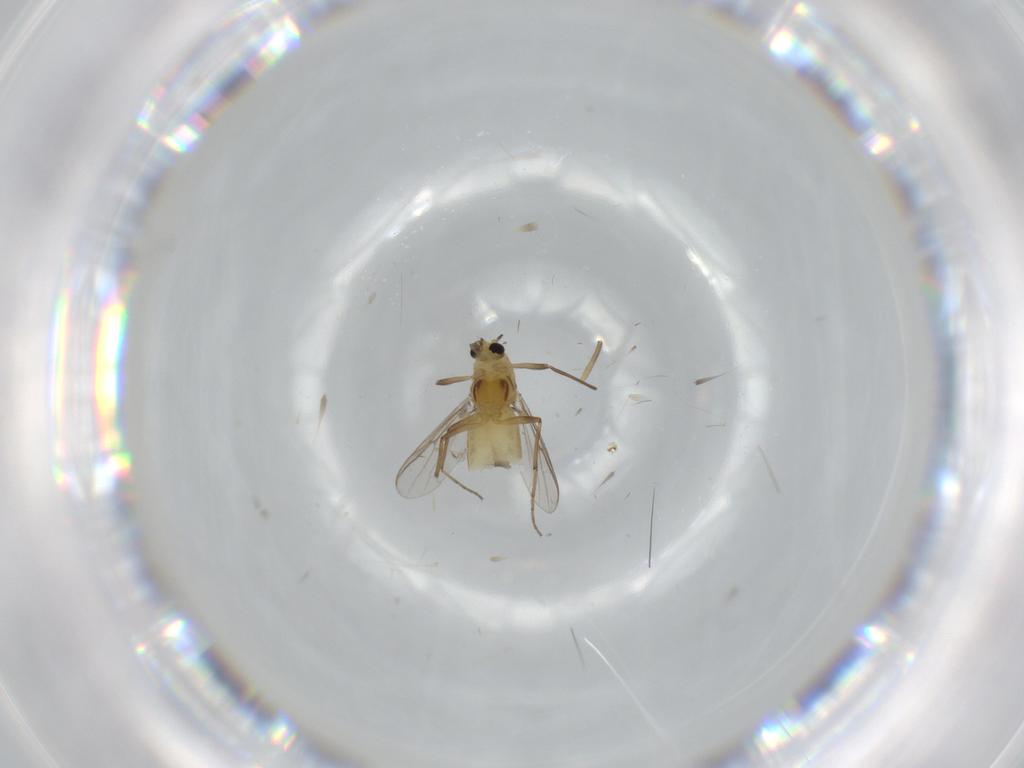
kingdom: Animalia
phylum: Arthropoda
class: Insecta
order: Diptera
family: Chironomidae
